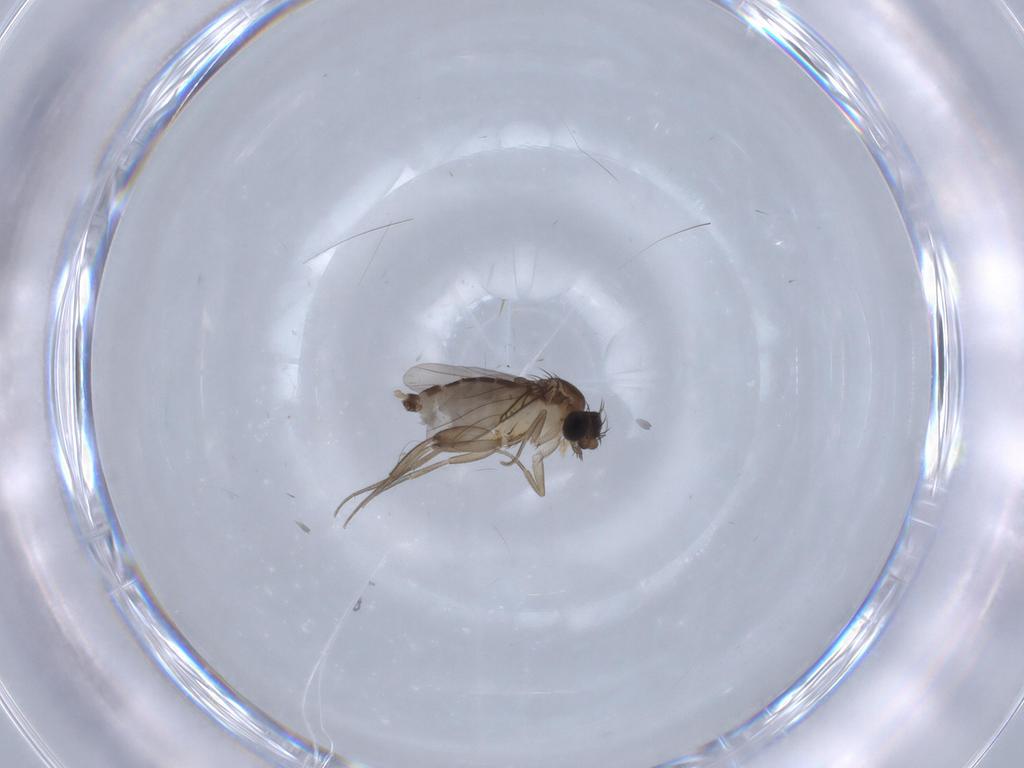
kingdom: Animalia
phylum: Arthropoda
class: Insecta
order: Diptera
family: Phoridae
